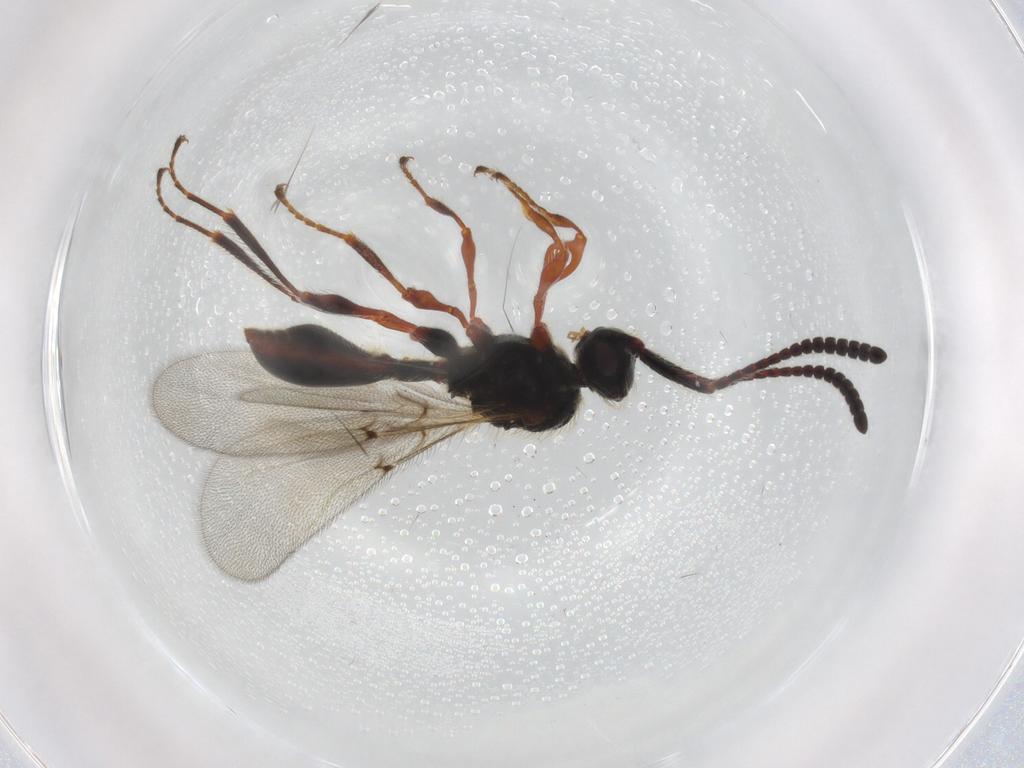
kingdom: Animalia
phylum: Arthropoda
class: Insecta
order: Hymenoptera
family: Diapriidae
